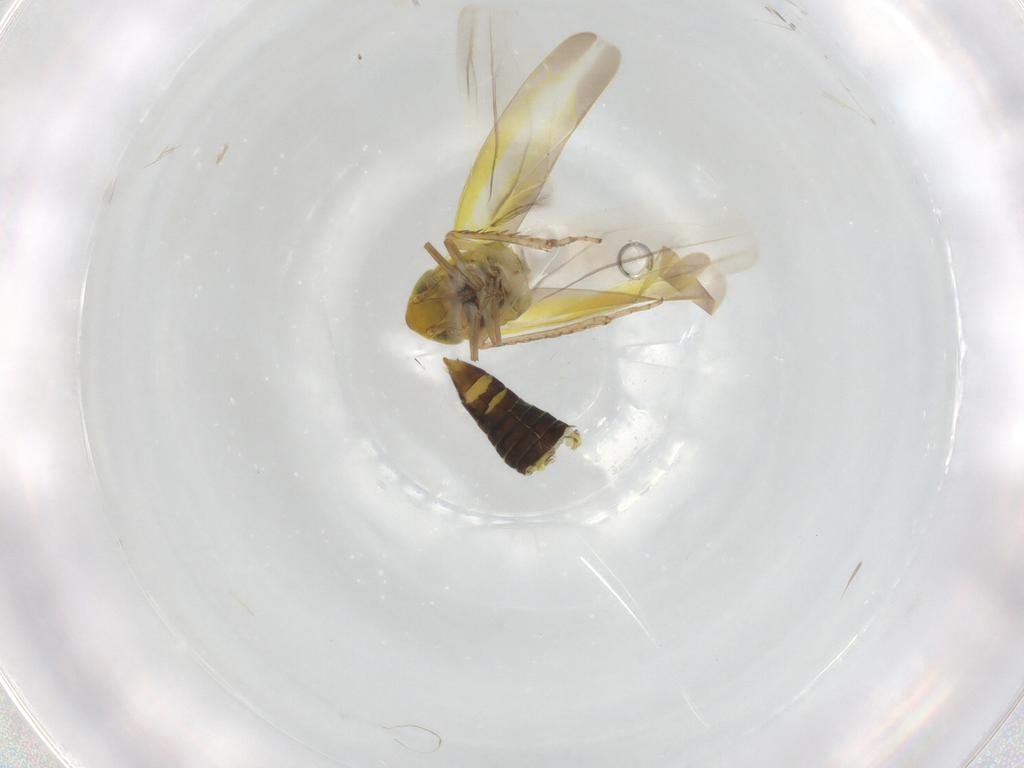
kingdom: Animalia
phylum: Arthropoda
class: Insecta
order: Hemiptera
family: Cicadellidae
